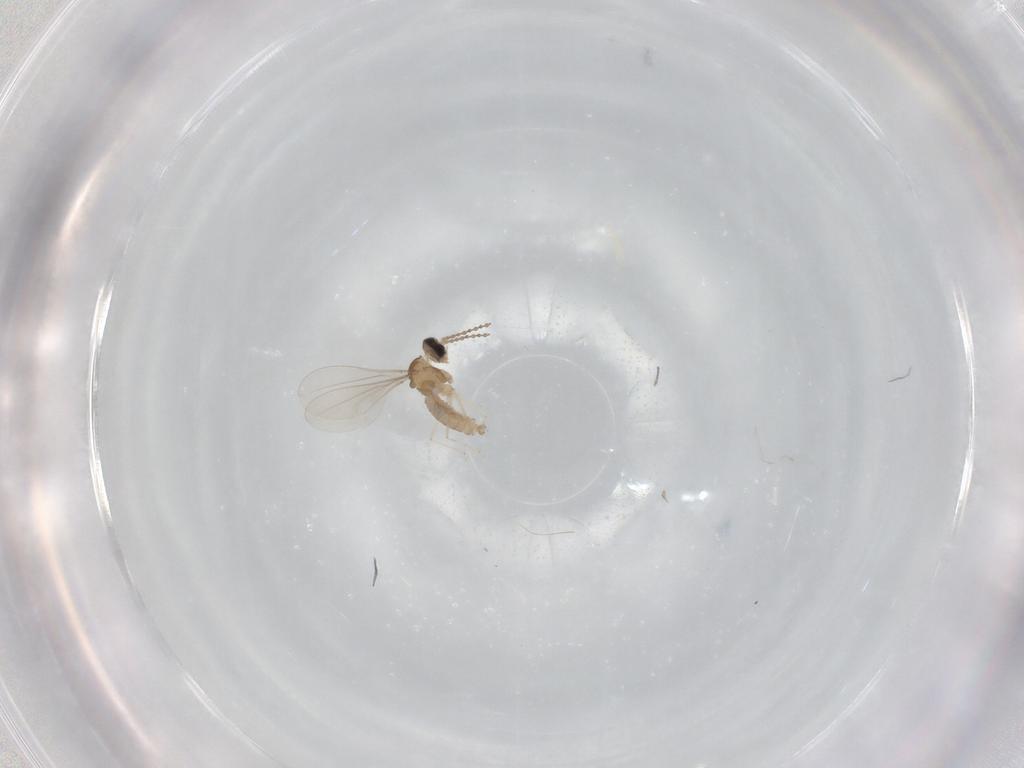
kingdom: Animalia
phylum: Arthropoda
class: Insecta
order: Diptera
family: Cecidomyiidae
